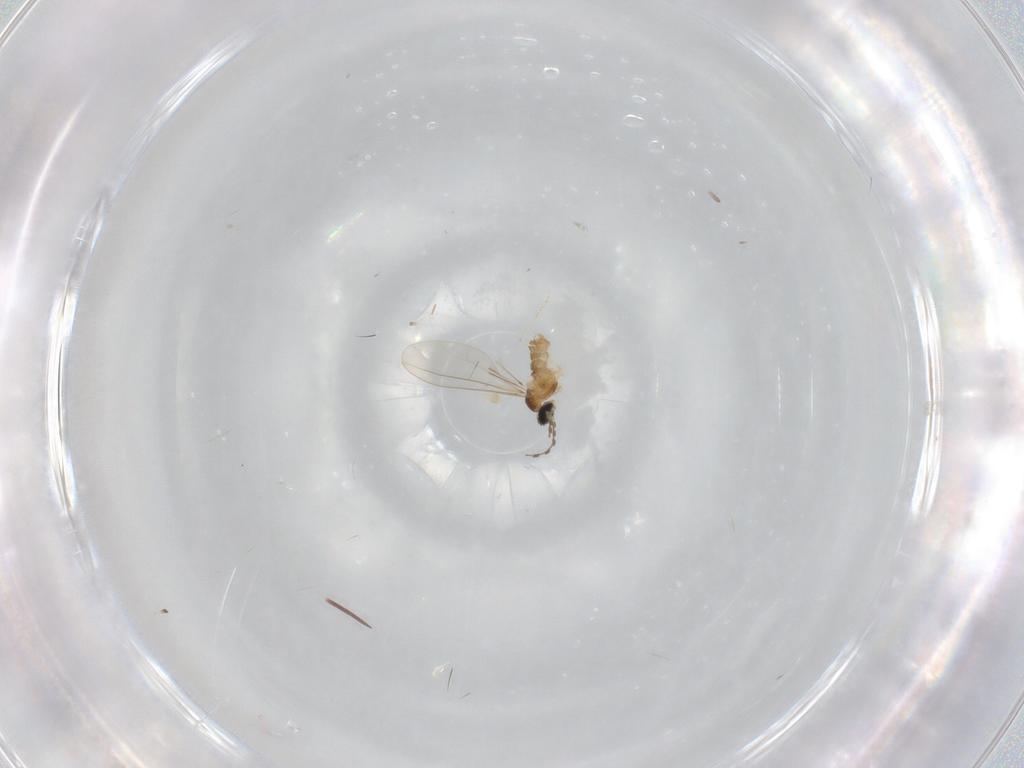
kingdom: Animalia
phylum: Arthropoda
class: Insecta
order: Diptera
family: Cecidomyiidae
